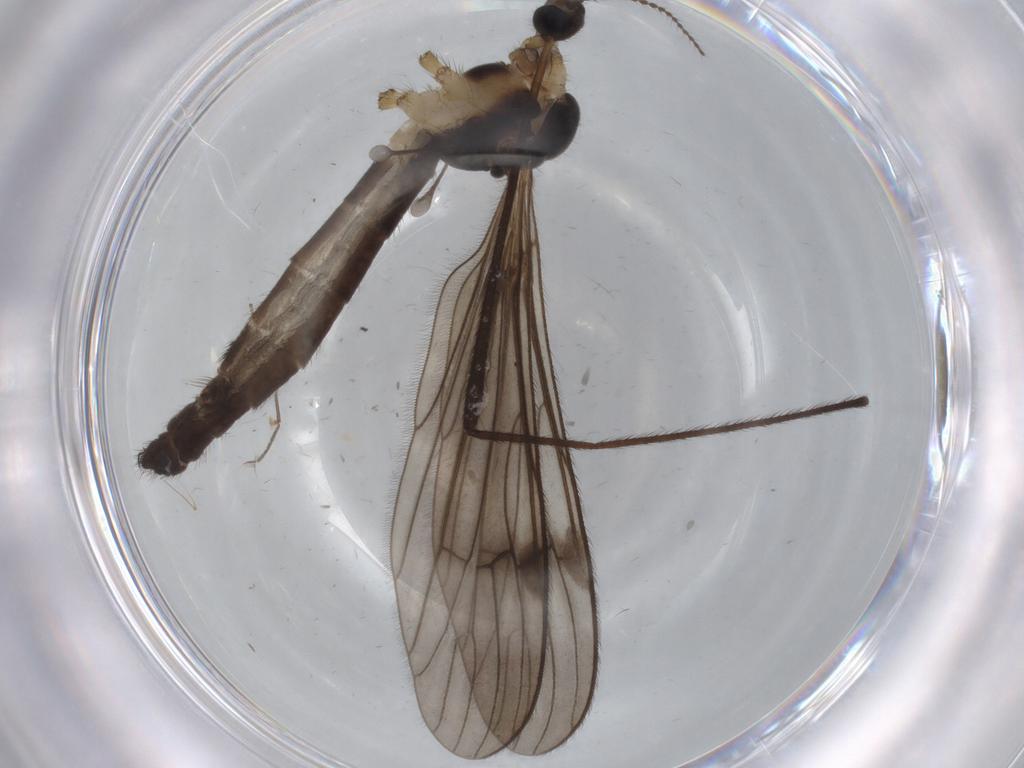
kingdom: Animalia
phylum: Arthropoda
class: Insecta
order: Diptera
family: Limoniidae
